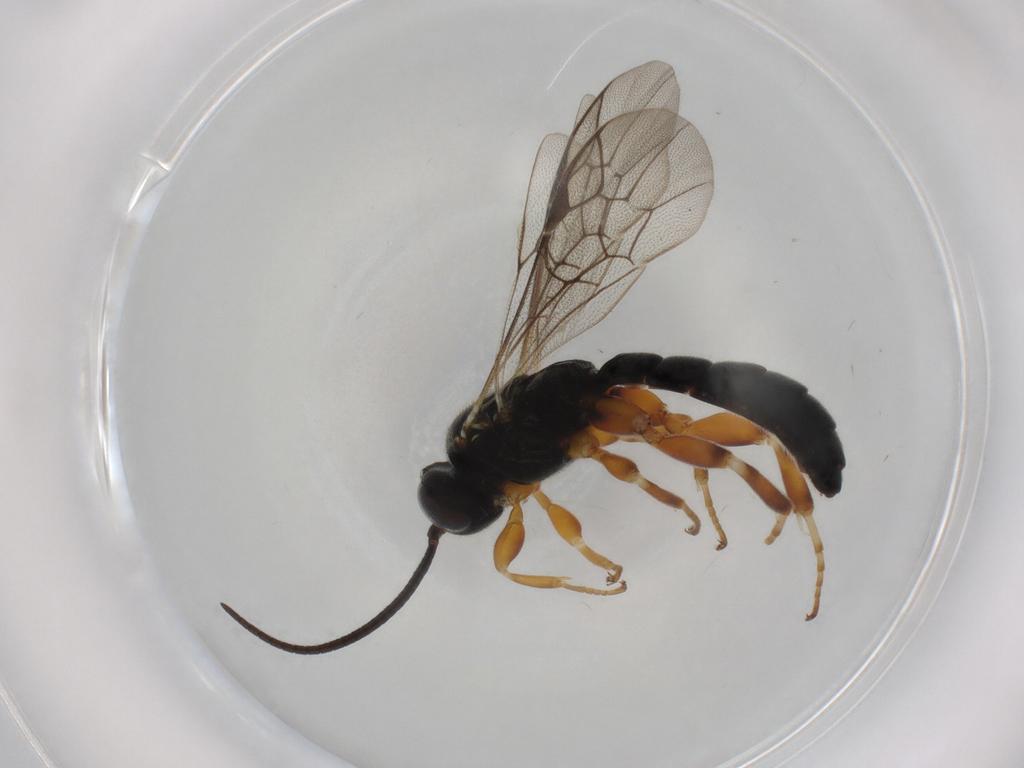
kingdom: Animalia
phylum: Arthropoda
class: Insecta
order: Hymenoptera
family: Ichneumonidae
